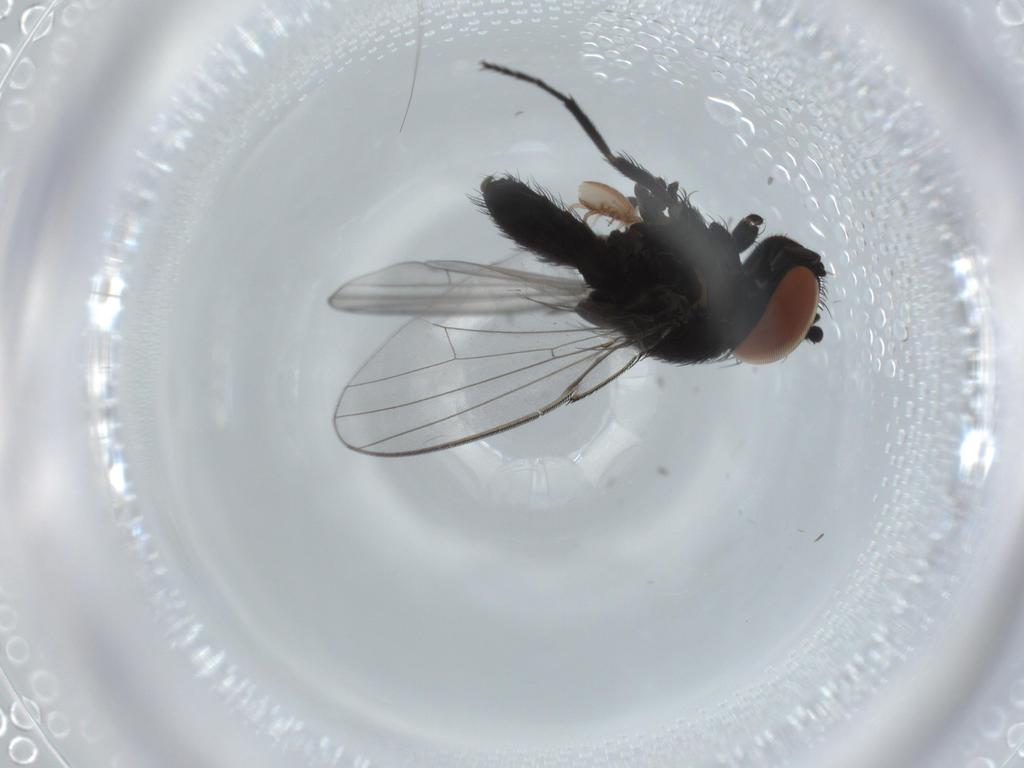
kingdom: Animalia
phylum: Arthropoda
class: Insecta
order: Diptera
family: Milichiidae
